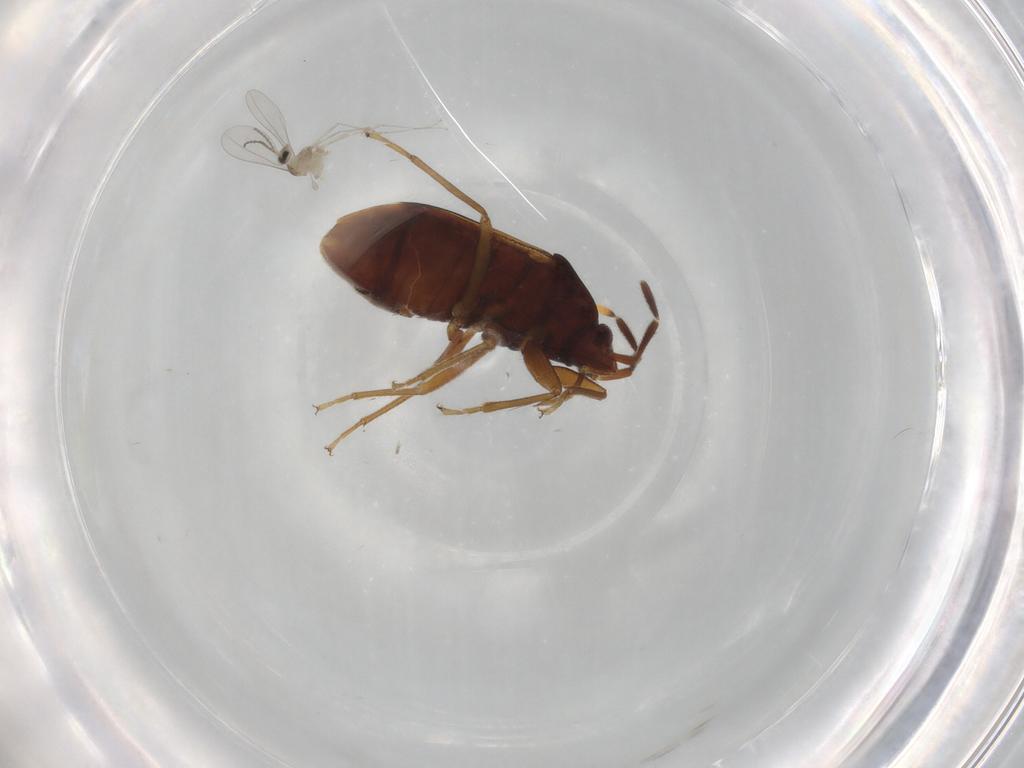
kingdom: Animalia
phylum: Arthropoda
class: Insecta
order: Hemiptera
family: Rhyparochromidae
